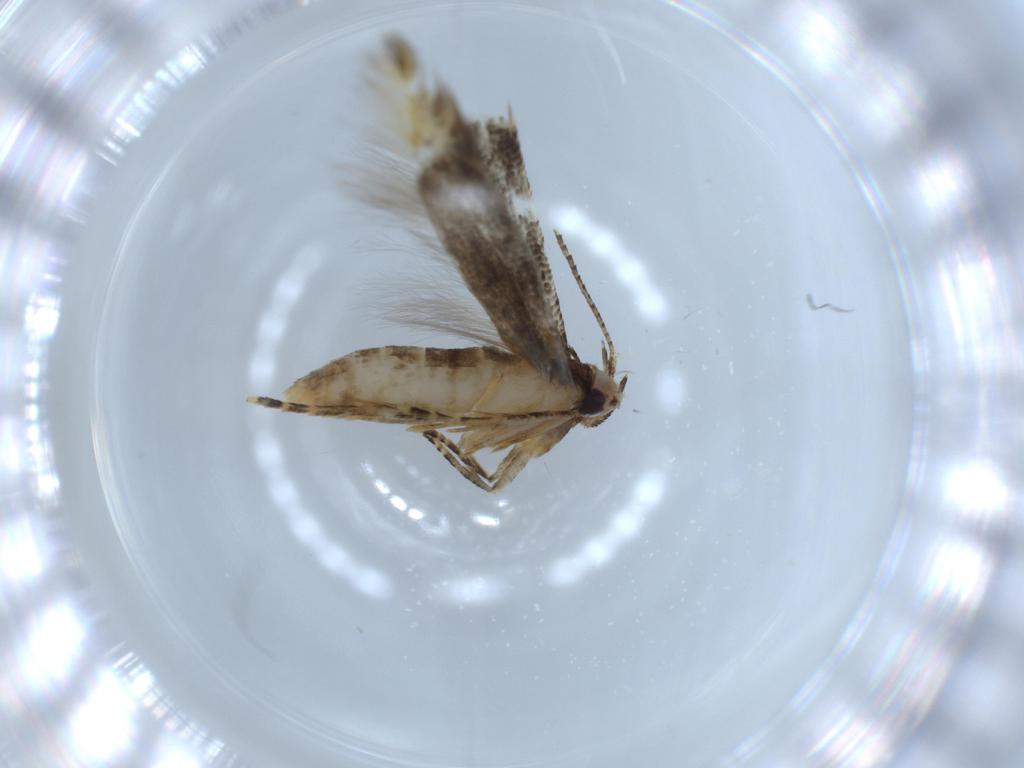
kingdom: Animalia
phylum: Arthropoda
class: Insecta
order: Lepidoptera
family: Stathmopodidae
